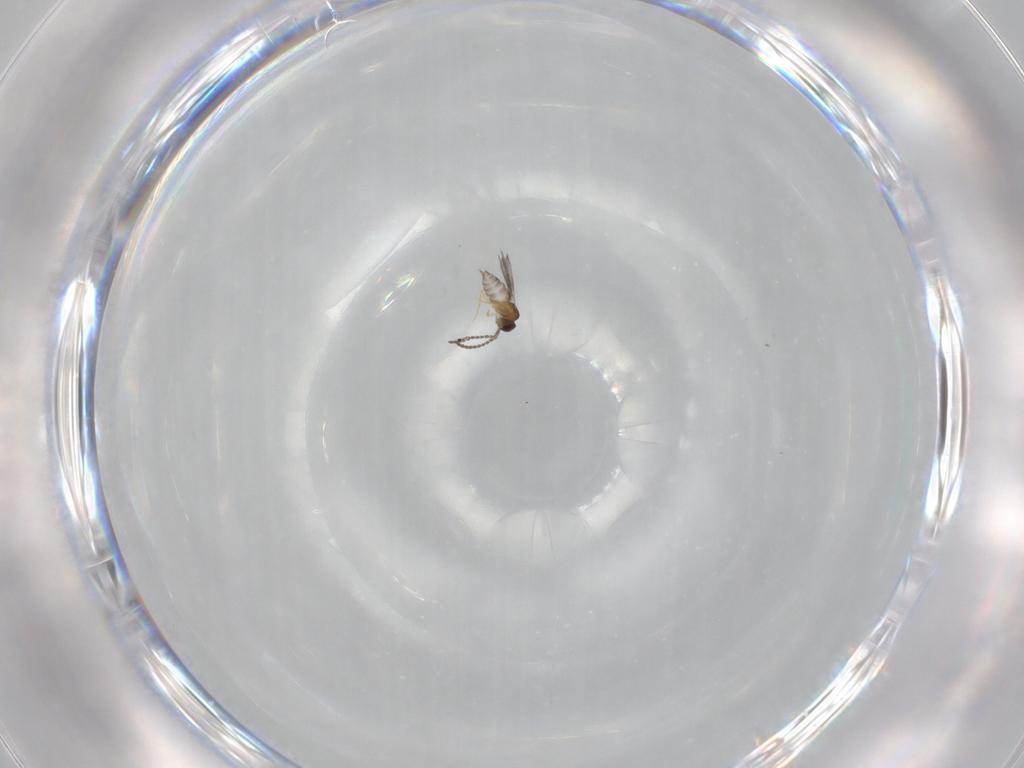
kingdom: Animalia
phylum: Arthropoda
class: Insecta
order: Hymenoptera
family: Ceraphronidae
